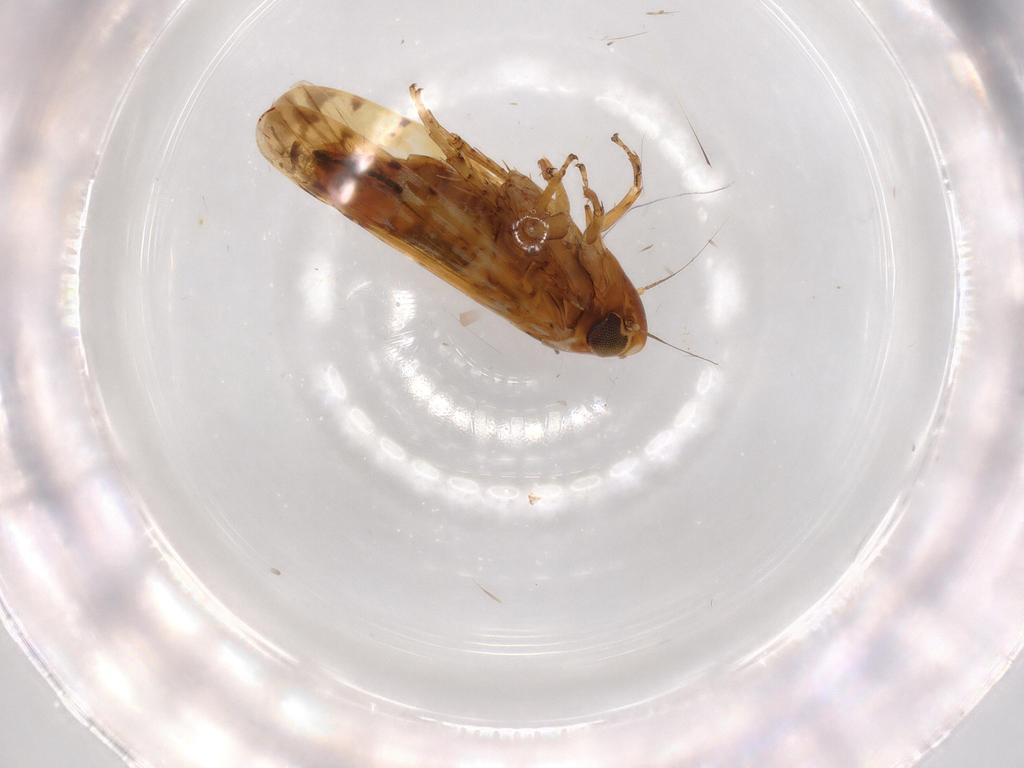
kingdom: Animalia
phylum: Arthropoda
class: Insecta
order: Hemiptera
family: Cicadellidae
